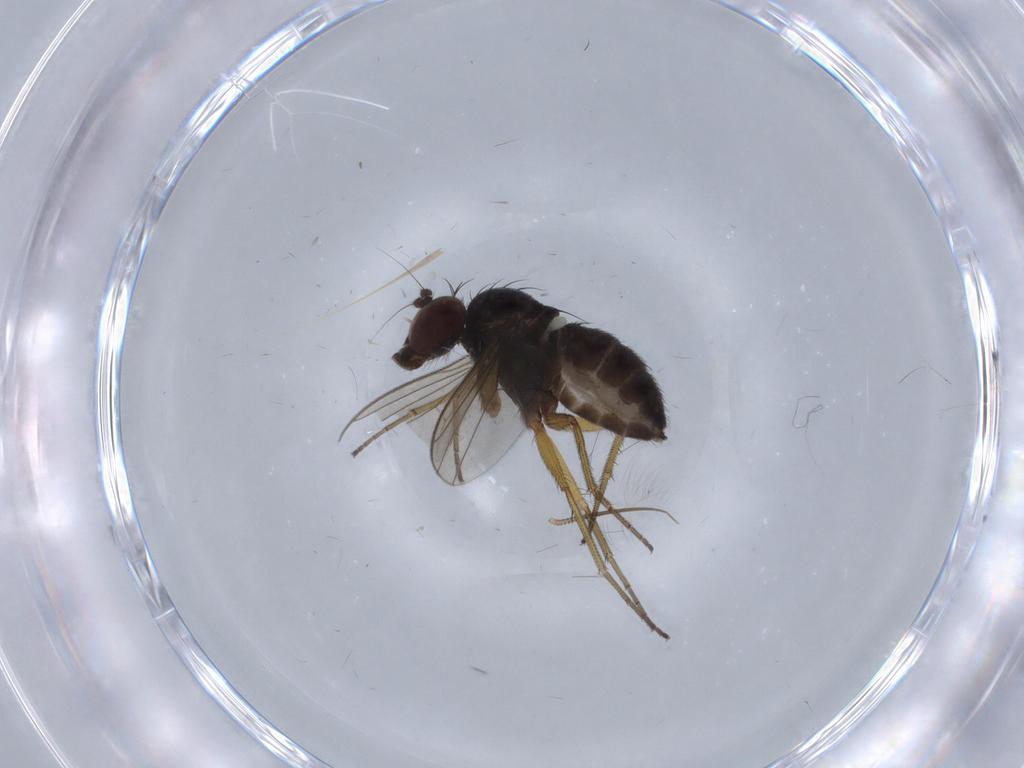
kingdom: Animalia
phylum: Arthropoda
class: Insecta
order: Diptera
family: Dolichopodidae
